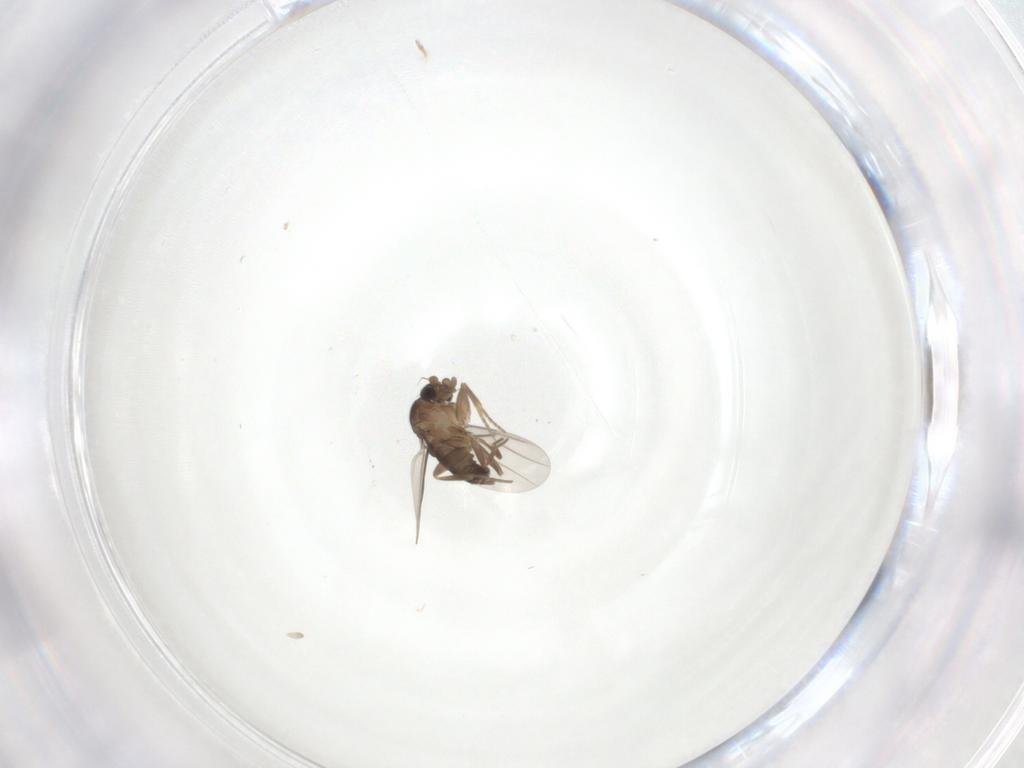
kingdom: Animalia
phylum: Arthropoda
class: Insecta
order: Diptera
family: Phoridae
